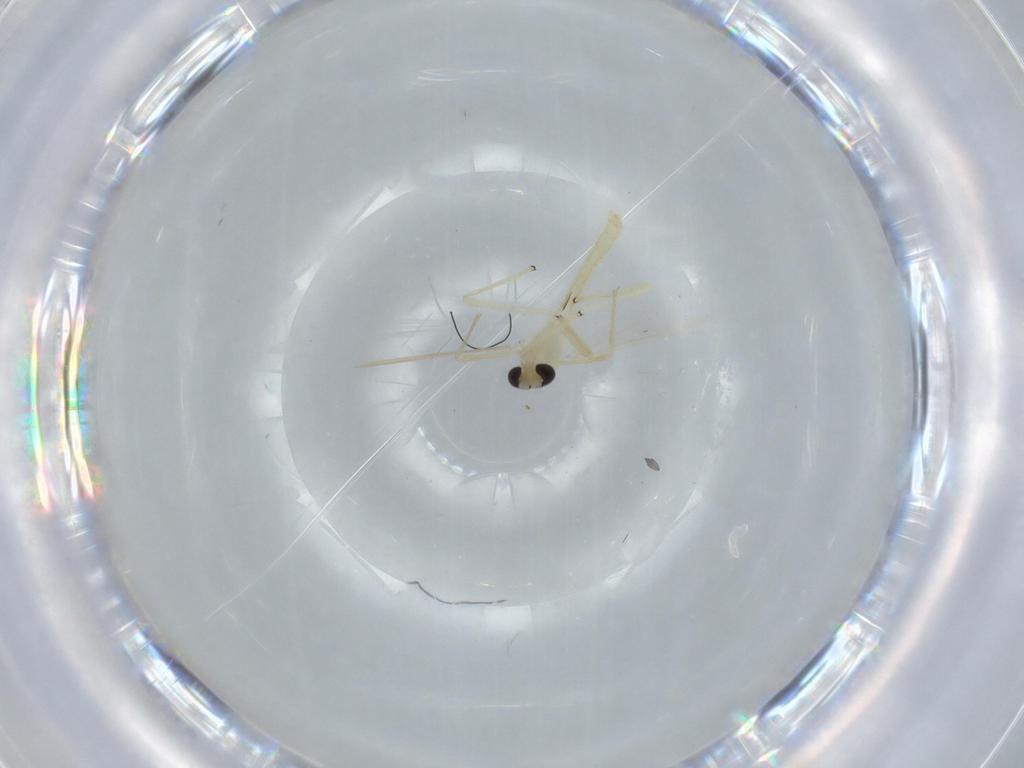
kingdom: Animalia
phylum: Arthropoda
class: Insecta
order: Diptera
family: Chironomidae
